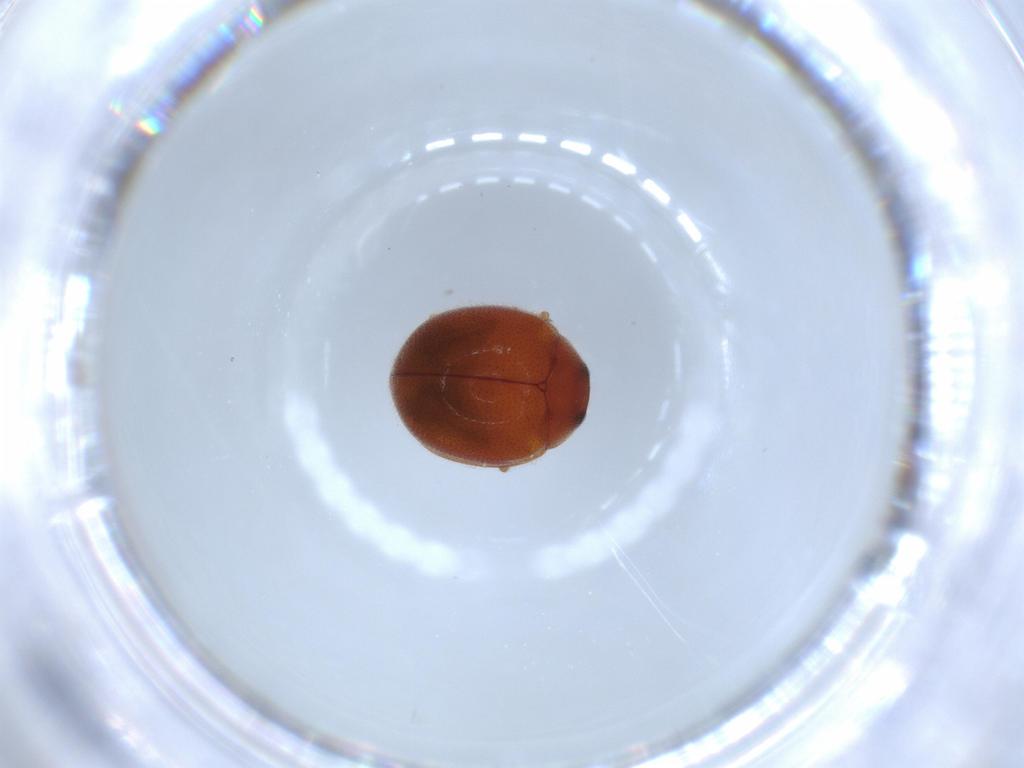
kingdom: Animalia
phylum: Arthropoda
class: Insecta
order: Coleoptera
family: Coccinellidae
